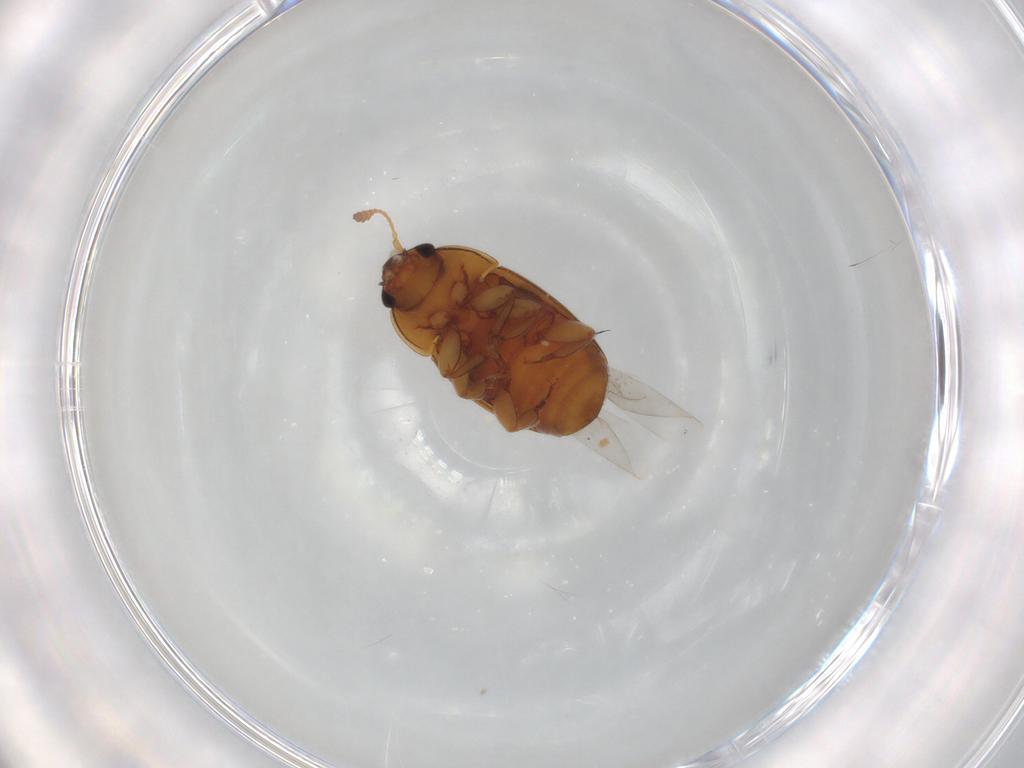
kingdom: Animalia
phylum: Arthropoda
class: Insecta
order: Coleoptera
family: Nitidulidae
